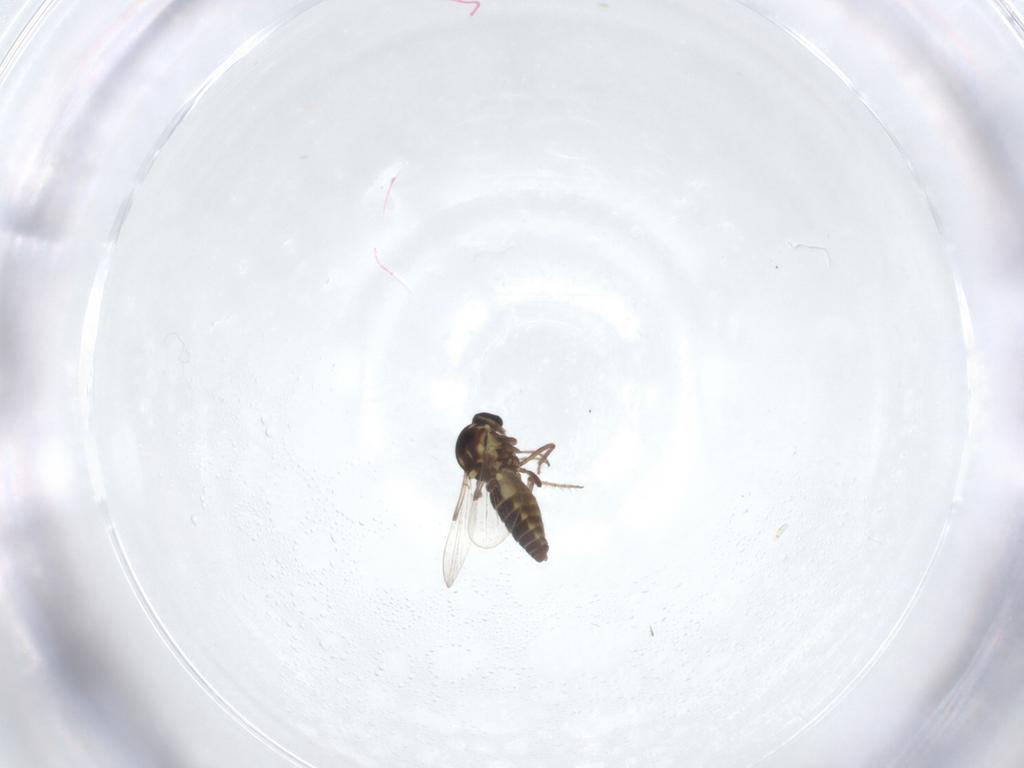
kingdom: Animalia
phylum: Arthropoda
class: Insecta
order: Diptera
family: Ceratopogonidae
